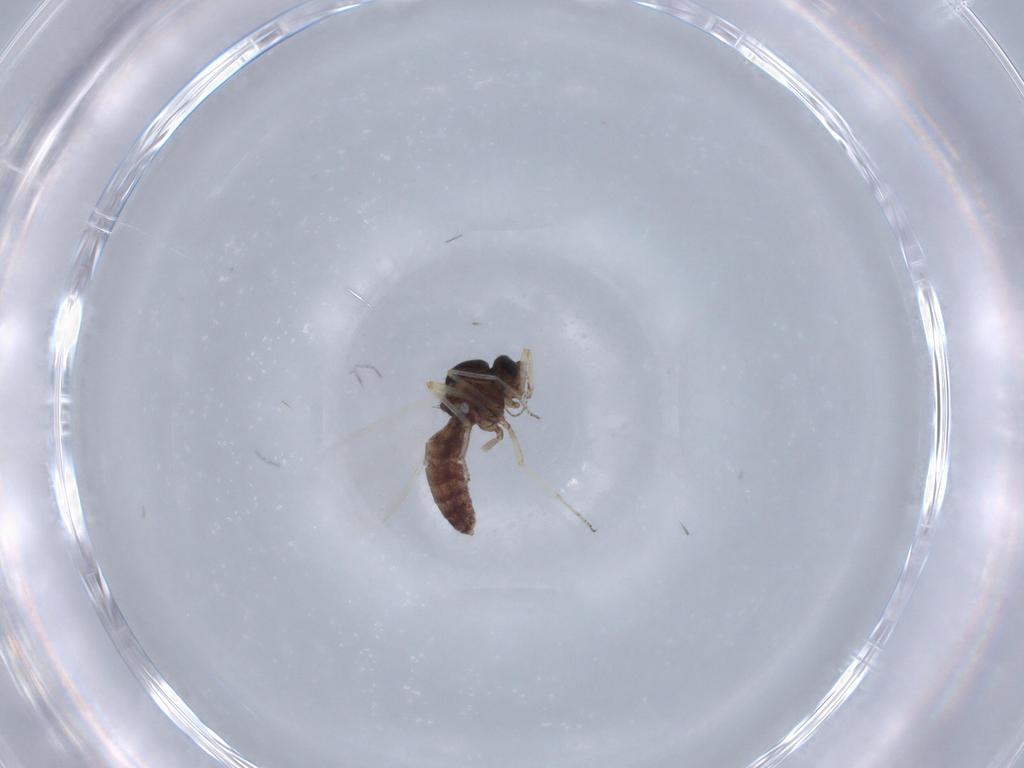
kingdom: Animalia
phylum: Arthropoda
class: Insecta
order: Diptera
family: Ceratopogonidae
